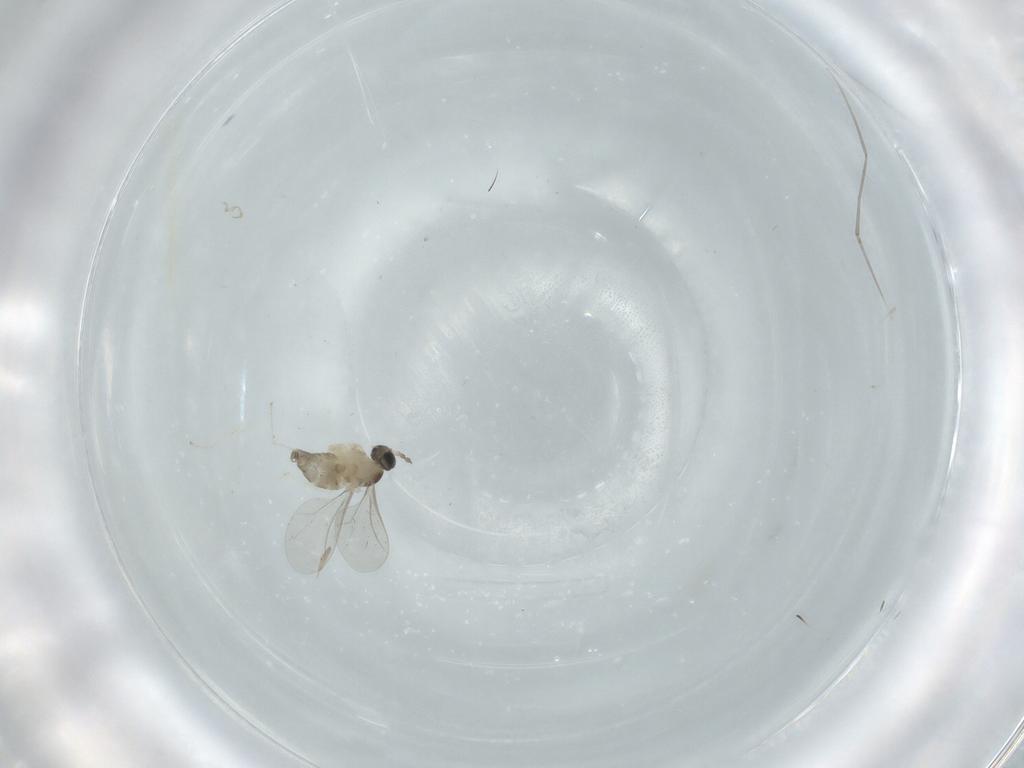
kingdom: Animalia
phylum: Arthropoda
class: Insecta
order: Diptera
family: Cecidomyiidae
